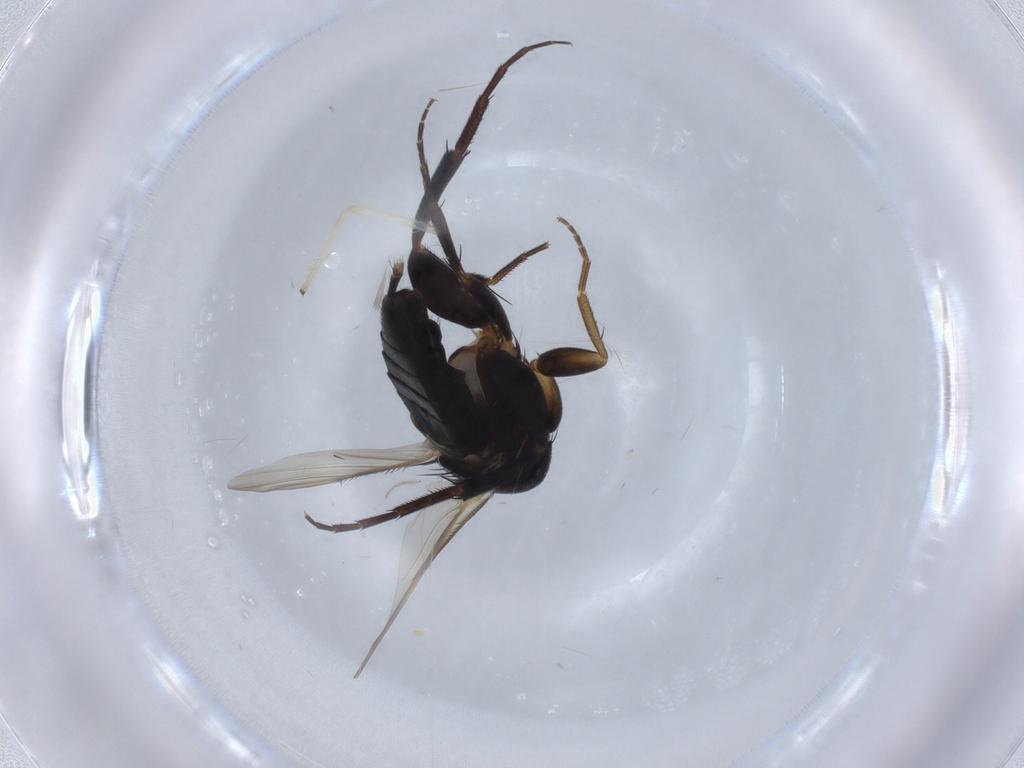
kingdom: Animalia
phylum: Arthropoda
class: Insecta
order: Diptera
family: Phoridae
